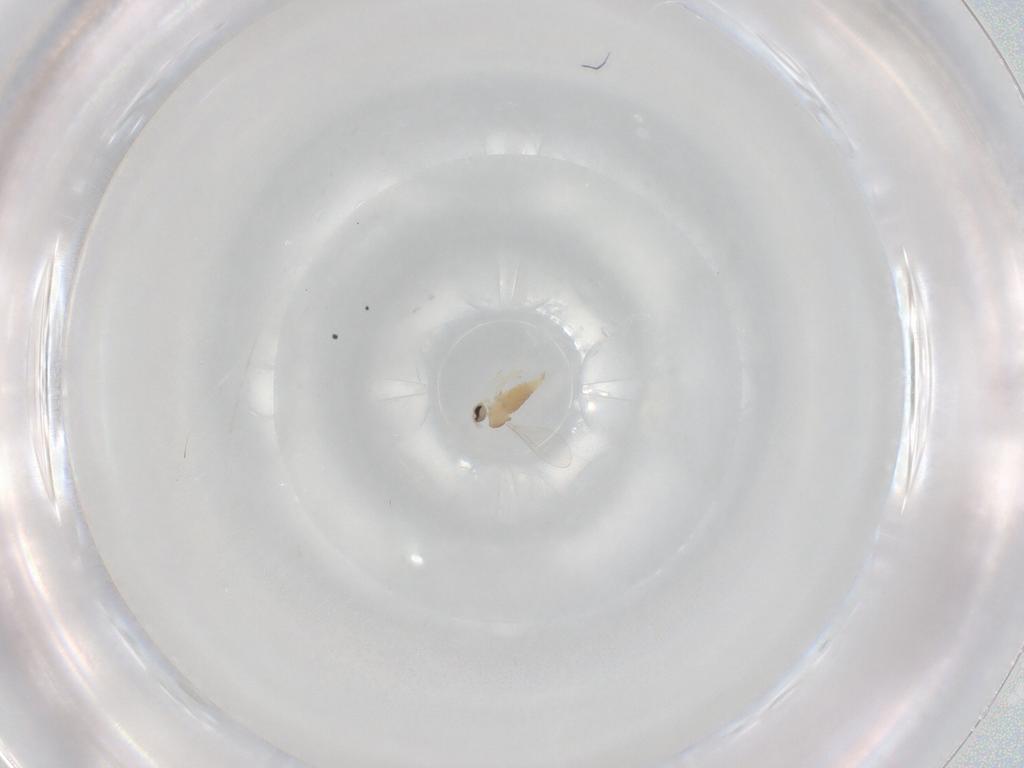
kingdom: Animalia
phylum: Arthropoda
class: Insecta
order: Diptera
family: Cecidomyiidae
